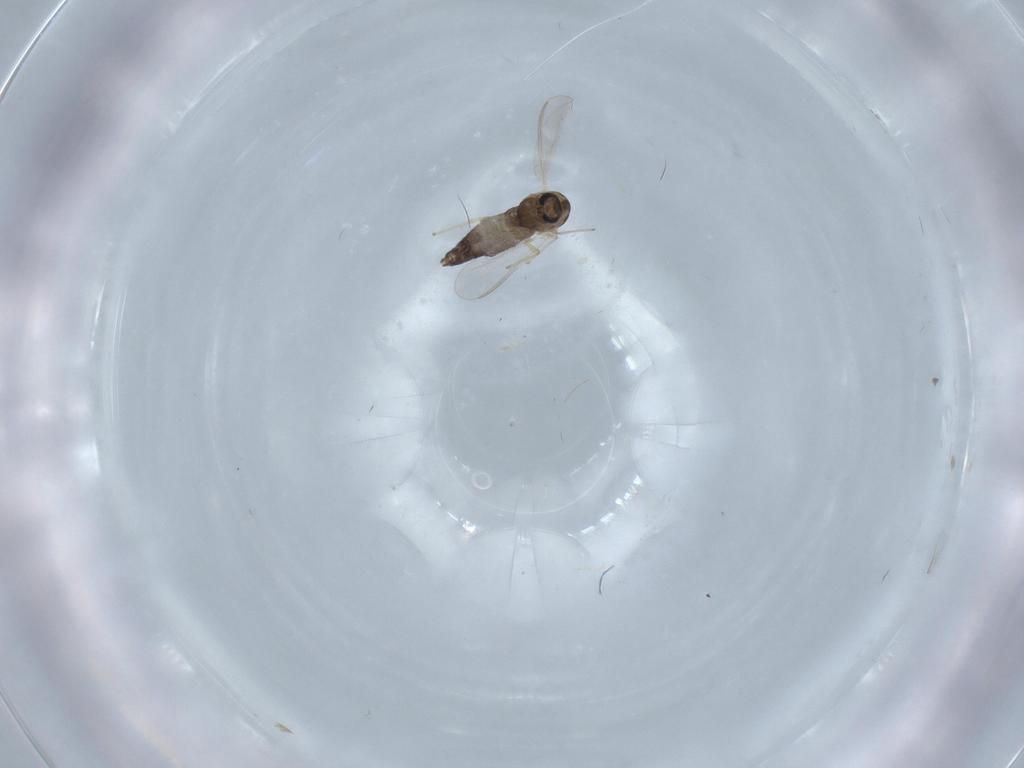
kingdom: Animalia
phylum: Arthropoda
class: Insecta
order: Diptera
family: Chironomidae
